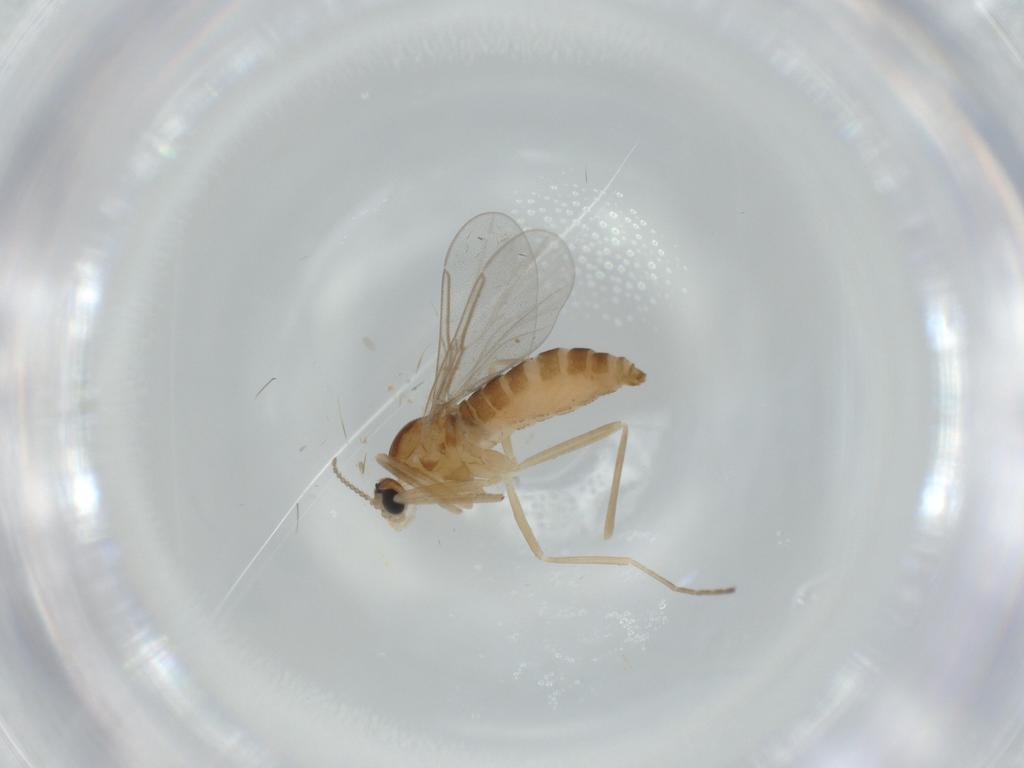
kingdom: Animalia
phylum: Arthropoda
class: Insecta
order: Diptera
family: Cecidomyiidae
